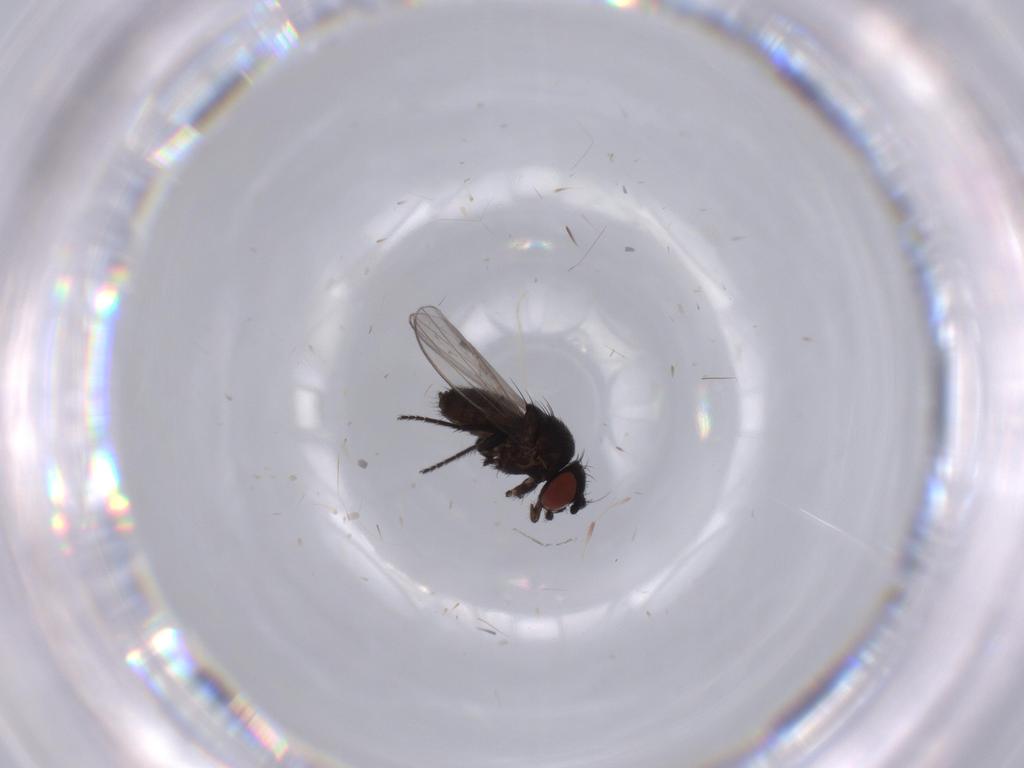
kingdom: Animalia
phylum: Arthropoda
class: Insecta
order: Diptera
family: Milichiidae
